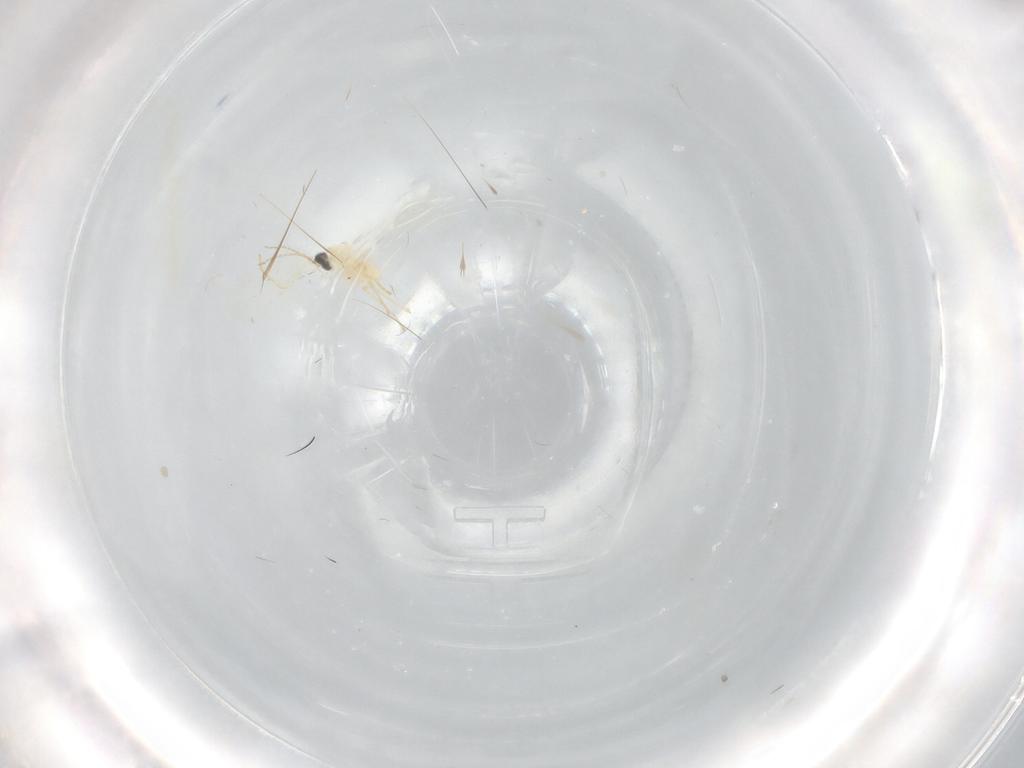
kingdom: Animalia
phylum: Arthropoda
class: Insecta
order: Diptera
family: Cecidomyiidae
